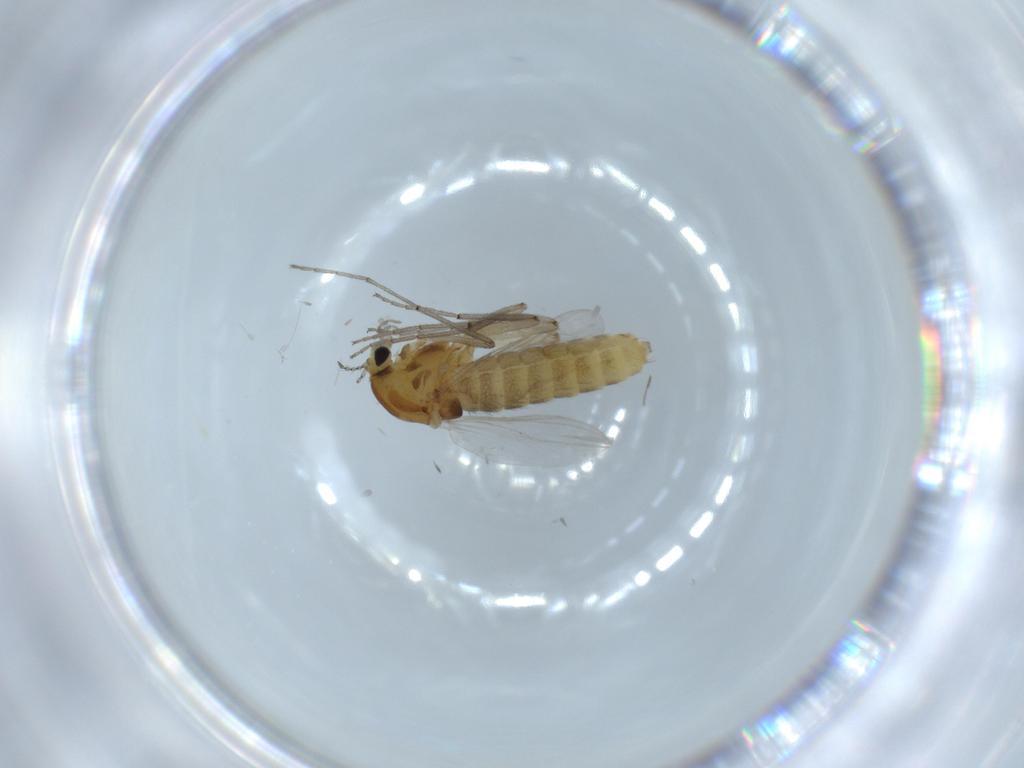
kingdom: Animalia
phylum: Arthropoda
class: Insecta
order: Diptera
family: Chironomidae
